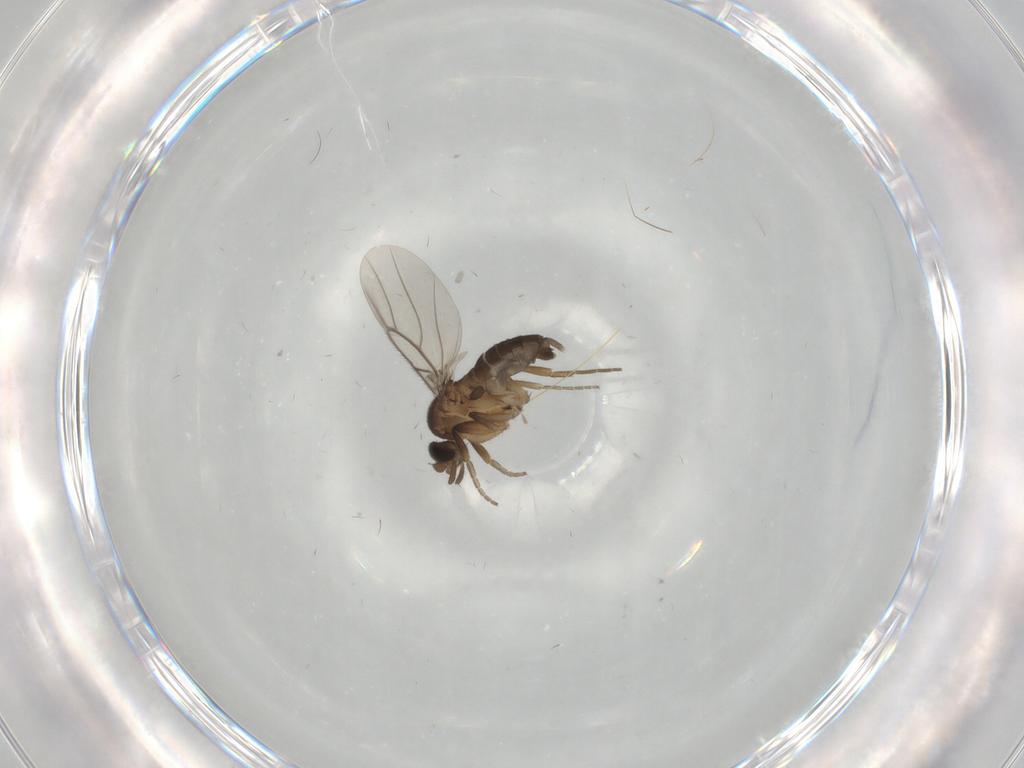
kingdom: Animalia
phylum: Arthropoda
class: Insecta
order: Diptera
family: Phoridae
